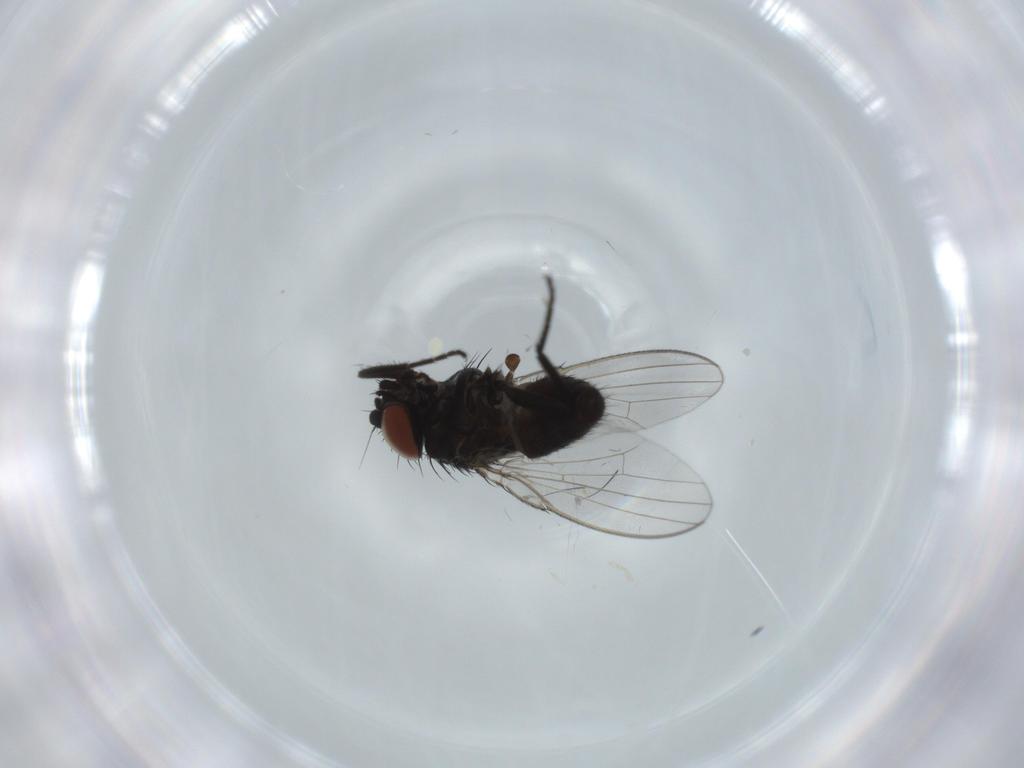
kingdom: Animalia
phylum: Arthropoda
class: Insecta
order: Diptera
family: Milichiidae
